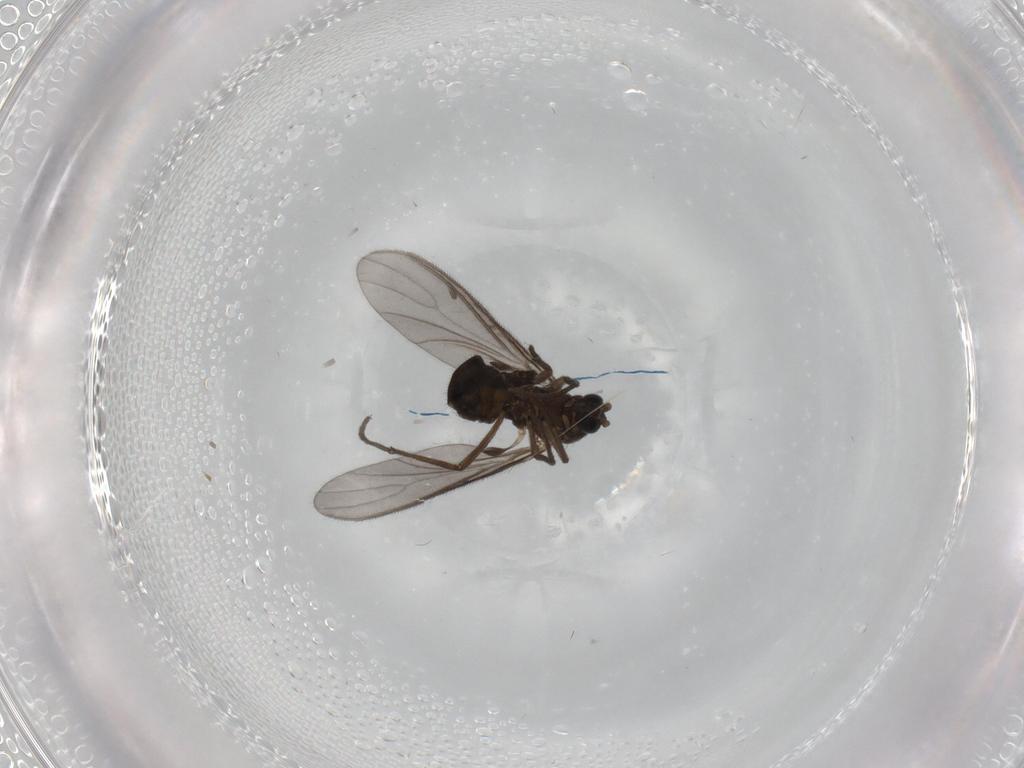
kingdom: Animalia
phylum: Arthropoda
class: Insecta
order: Diptera
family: Sciaridae
